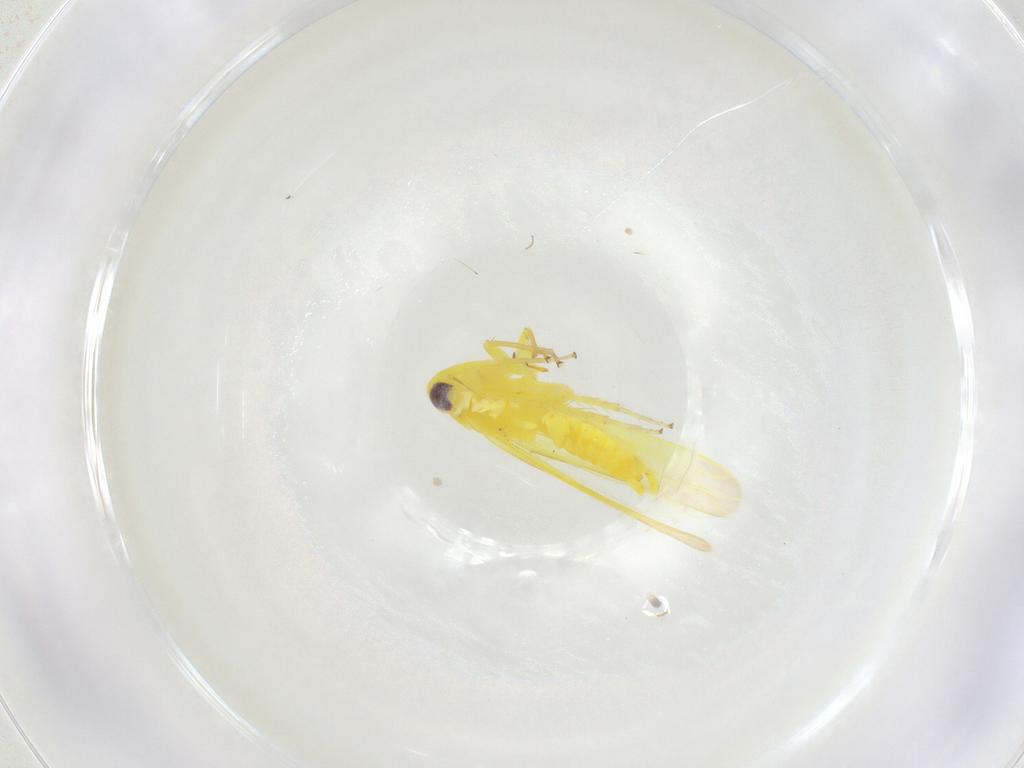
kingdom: Animalia
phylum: Arthropoda
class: Insecta
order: Hemiptera
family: Cicadellidae
